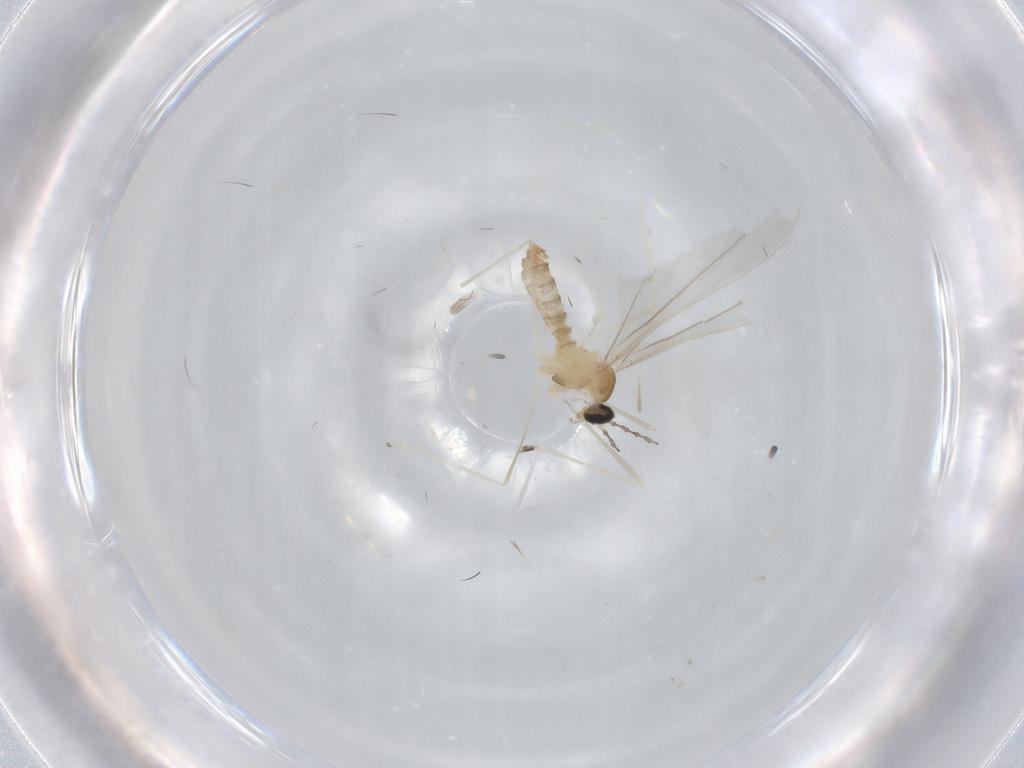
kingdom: Animalia
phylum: Arthropoda
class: Insecta
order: Diptera
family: Cecidomyiidae
